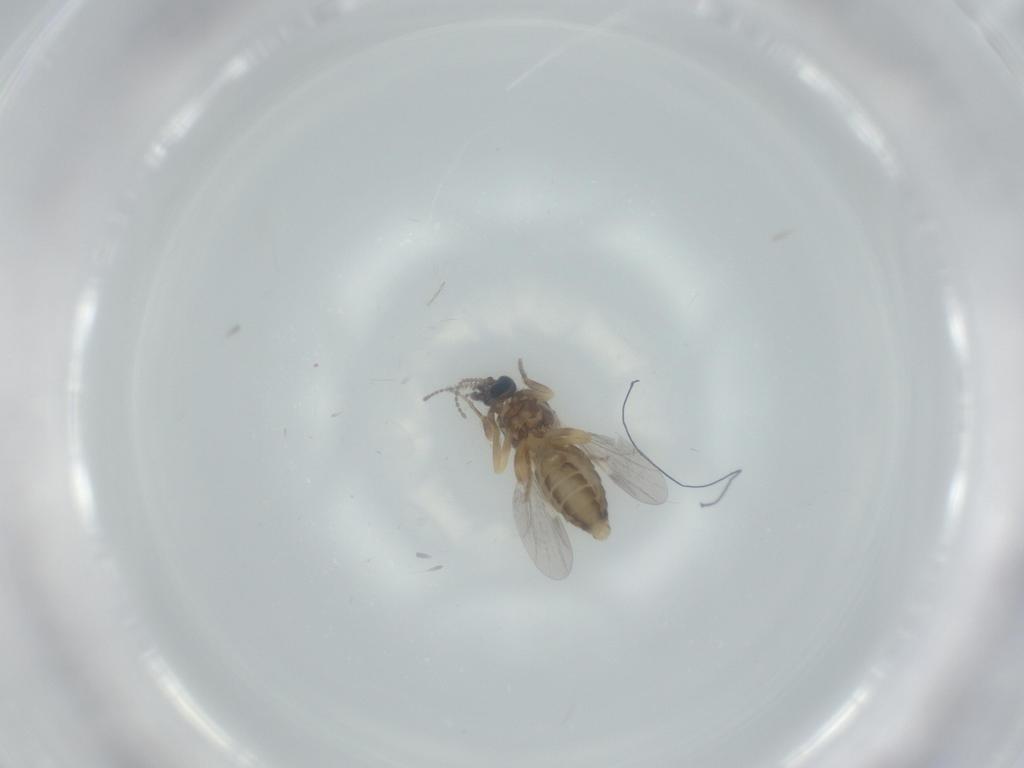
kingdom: Animalia
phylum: Arthropoda
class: Insecta
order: Diptera
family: Ceratopogonidae
